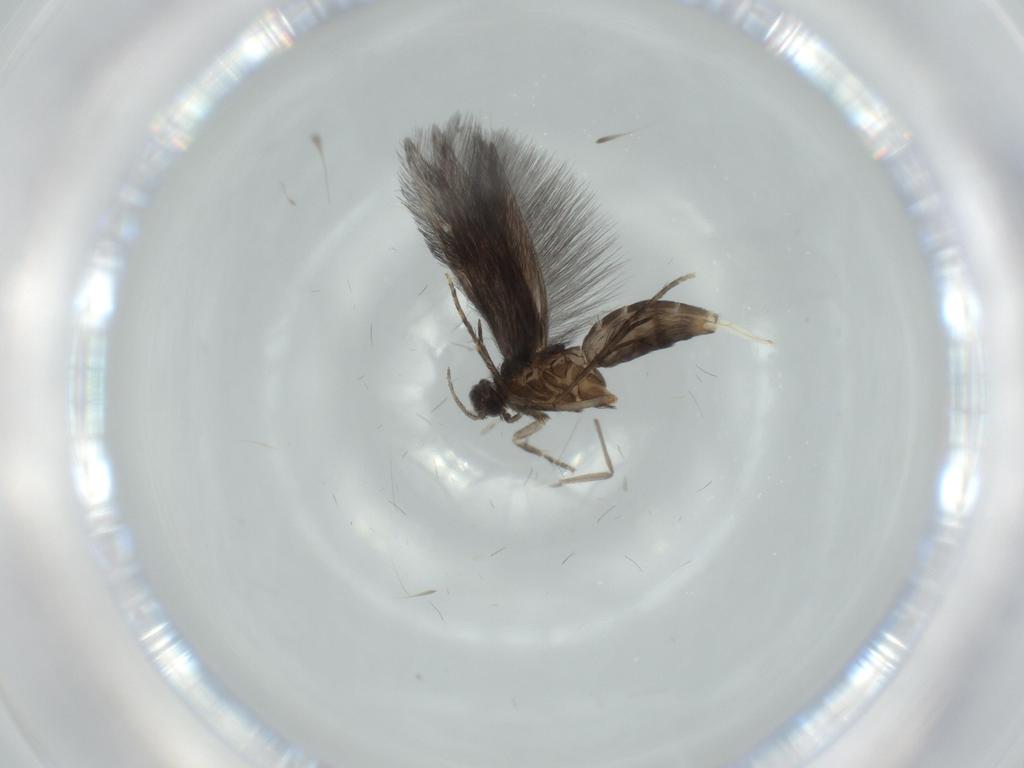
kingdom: Animalia
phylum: Arthropoda
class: Insecta
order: Trichoptera
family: Hydroptilidae
